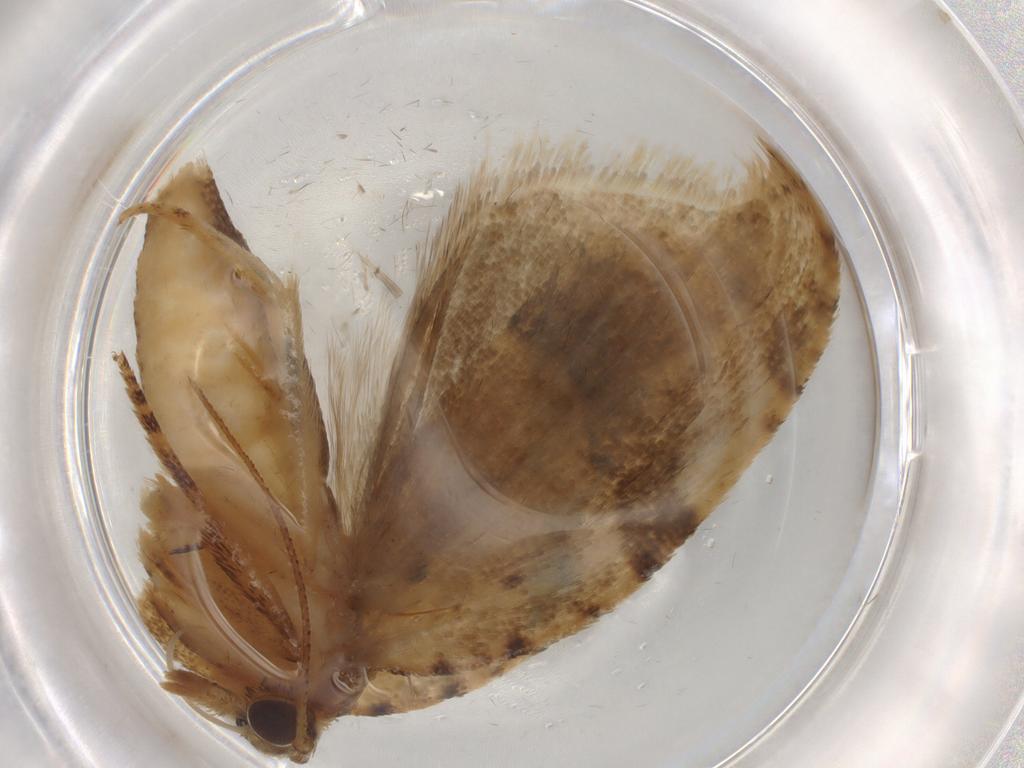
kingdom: Animalia
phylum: Arthropoda
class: Insecta
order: Lepidoptera
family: Tortricidae
